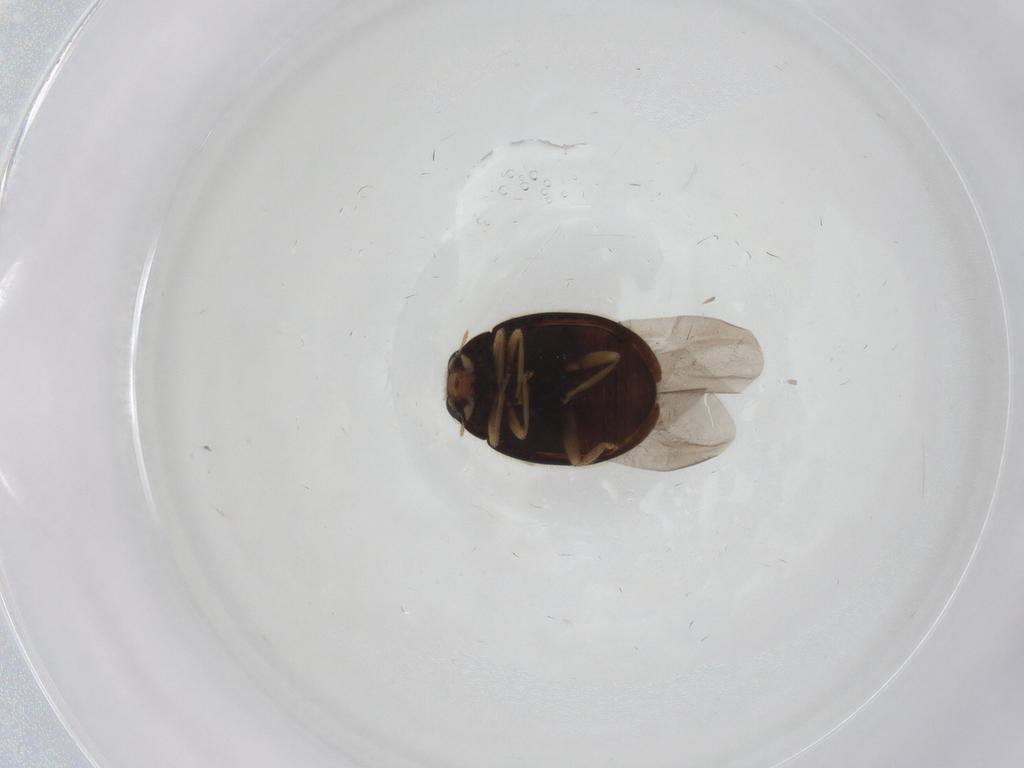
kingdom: Animalia
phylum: Arthropoda
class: Insecta
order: Coleoptera
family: Coccinellidae
